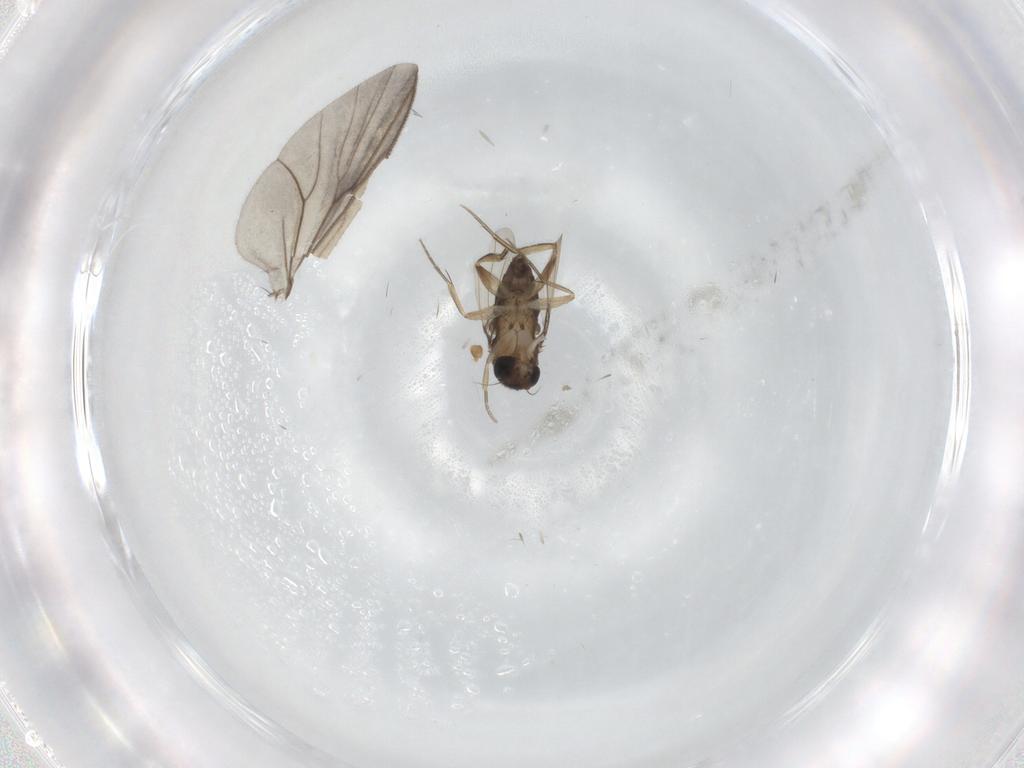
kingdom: Animalia
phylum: Arthropoda
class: Insecta
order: Diptera
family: Phoridae
